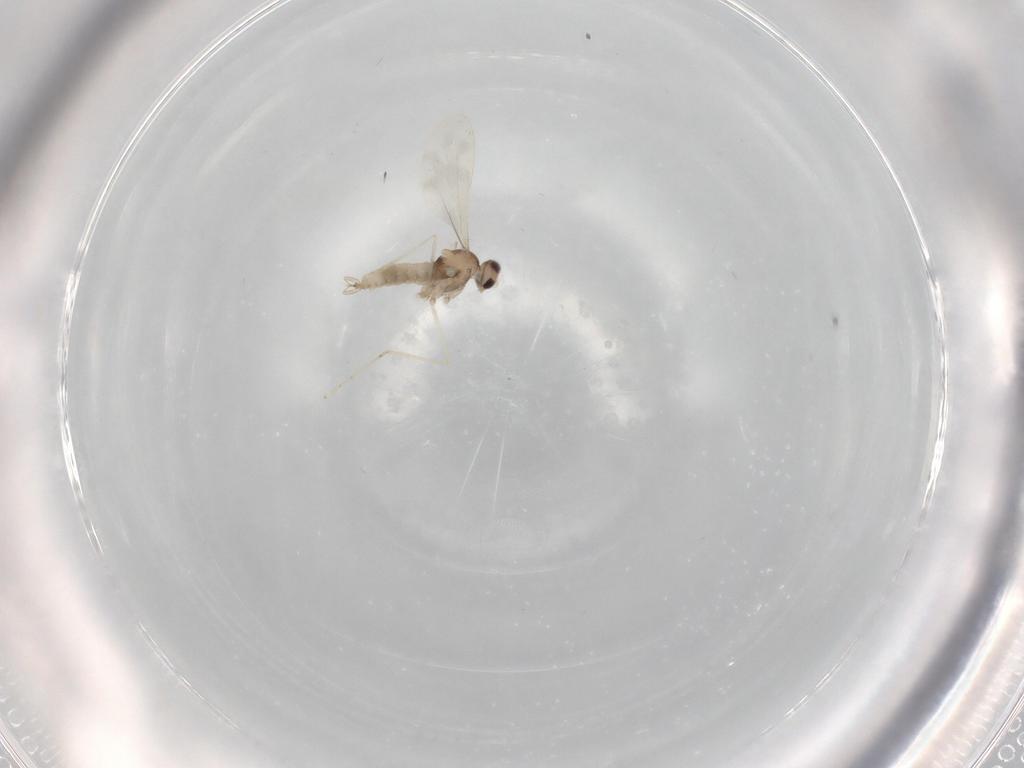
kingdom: Animalia
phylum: Arthropoda
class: Insecta
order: Diptera
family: Cecidomyiidae
